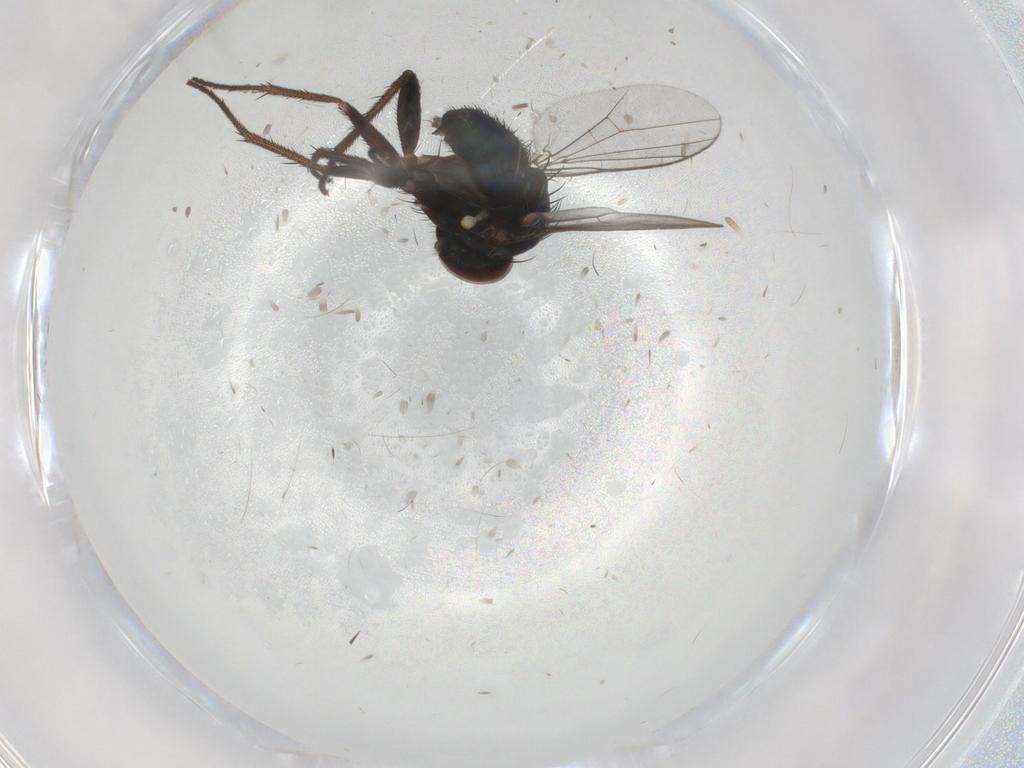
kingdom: Animalia
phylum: Arthropoda
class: Insecta
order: Diptera
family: Dolichopodidae
